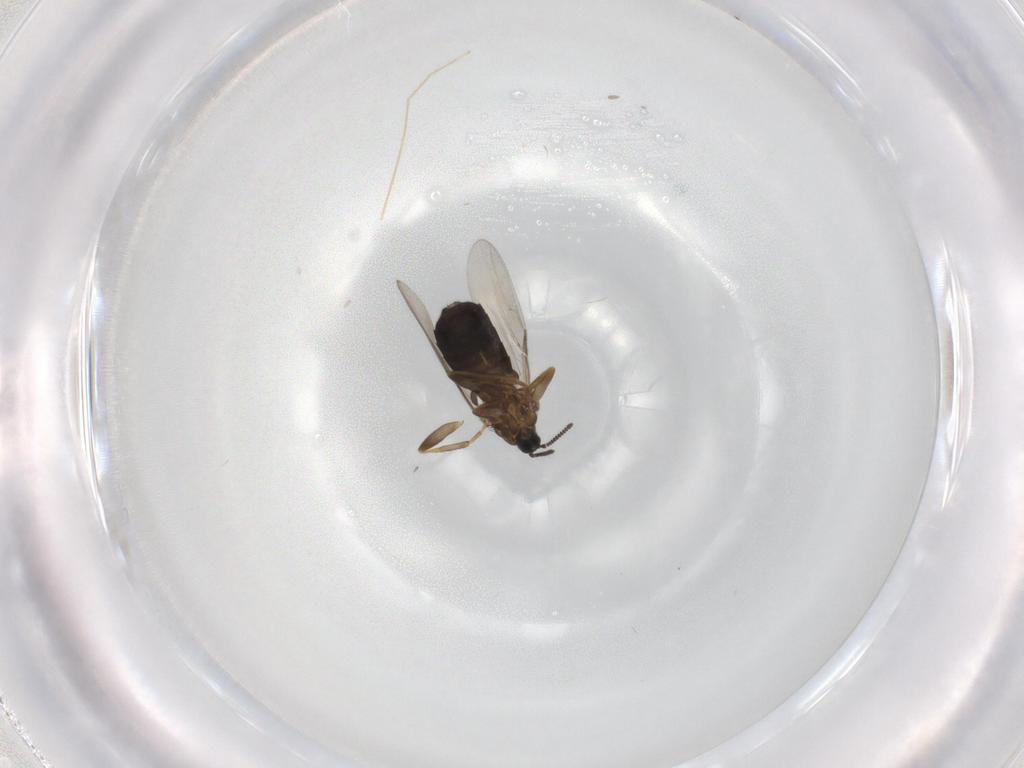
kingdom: Animalia
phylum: Arthropoda
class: Insecta
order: Diptera
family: Scatopsidae
